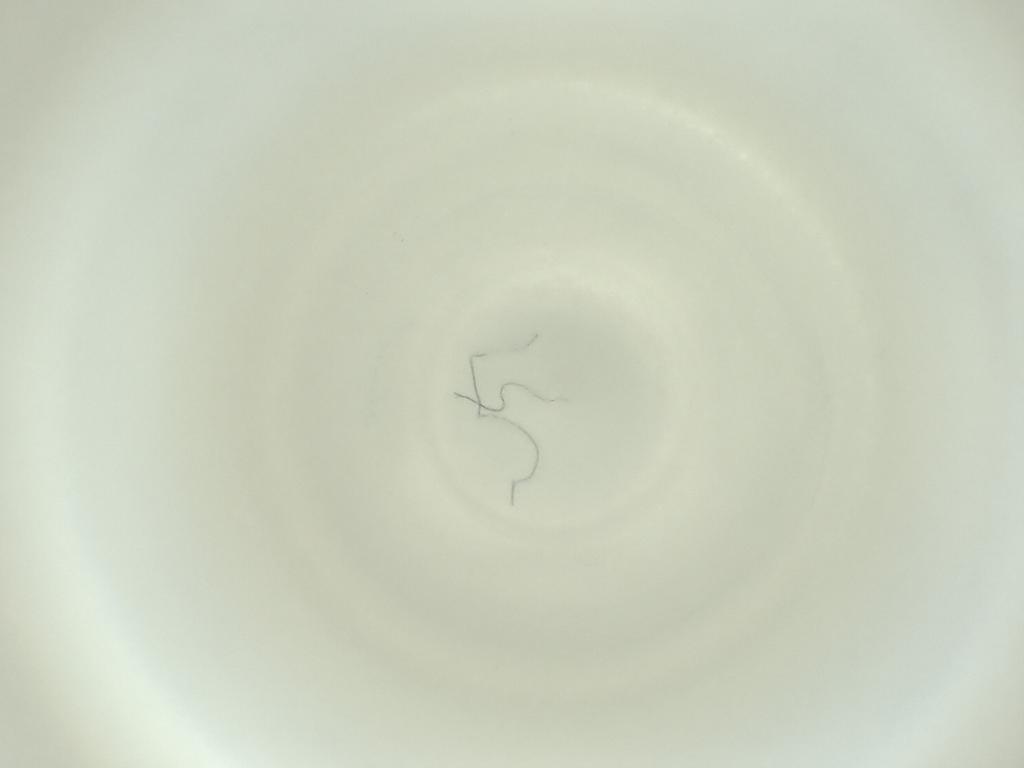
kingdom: Animalia
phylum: Arthropoda
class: Insecta
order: Diptera
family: Cecidomyiidae
